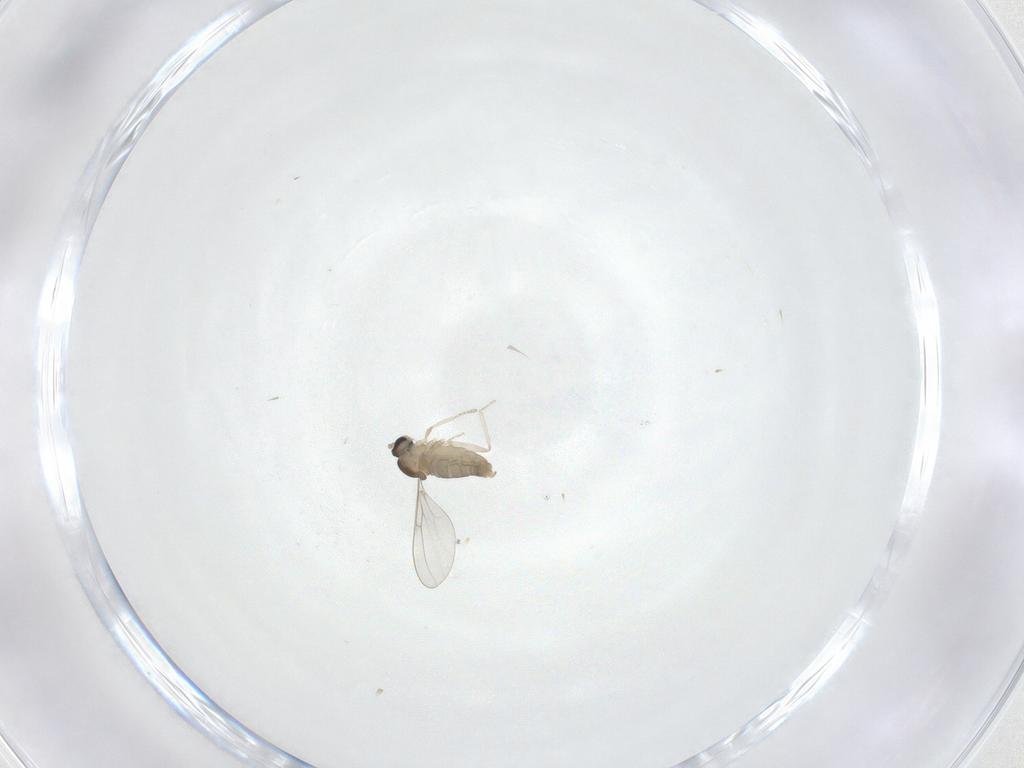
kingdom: Animalia
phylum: Arthropoda
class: Insecta
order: Diptera
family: Cecidomyiidae
